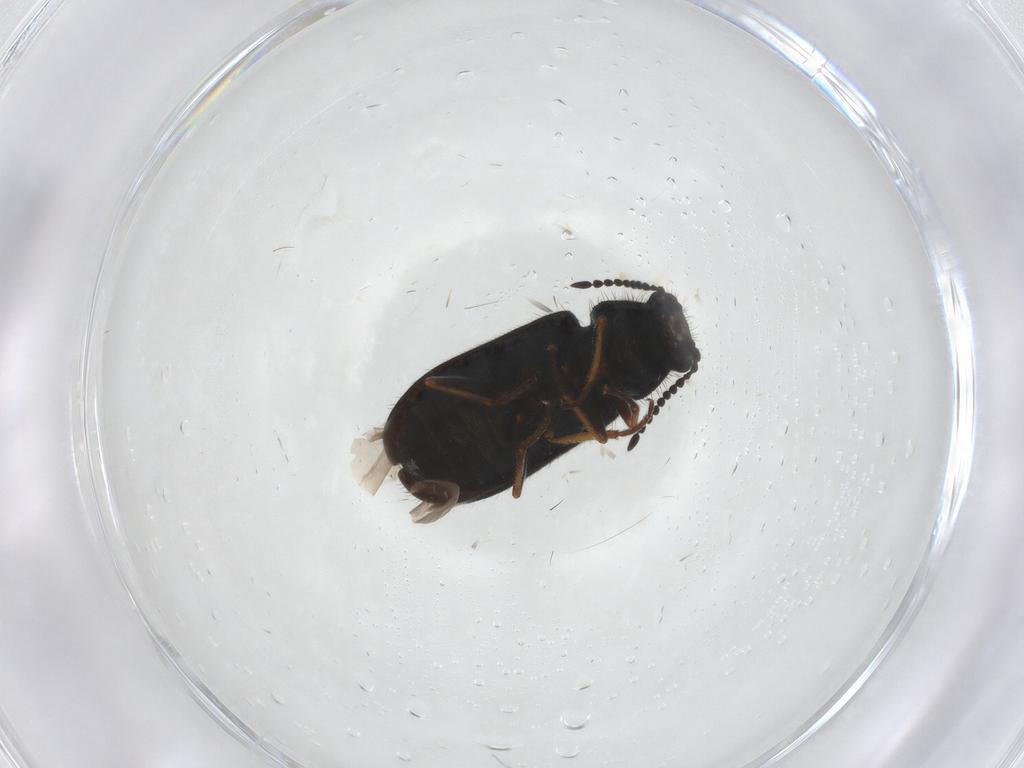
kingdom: Animalia
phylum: Arthropoda
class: Insecta
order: Coleoptera
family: Melyridae
